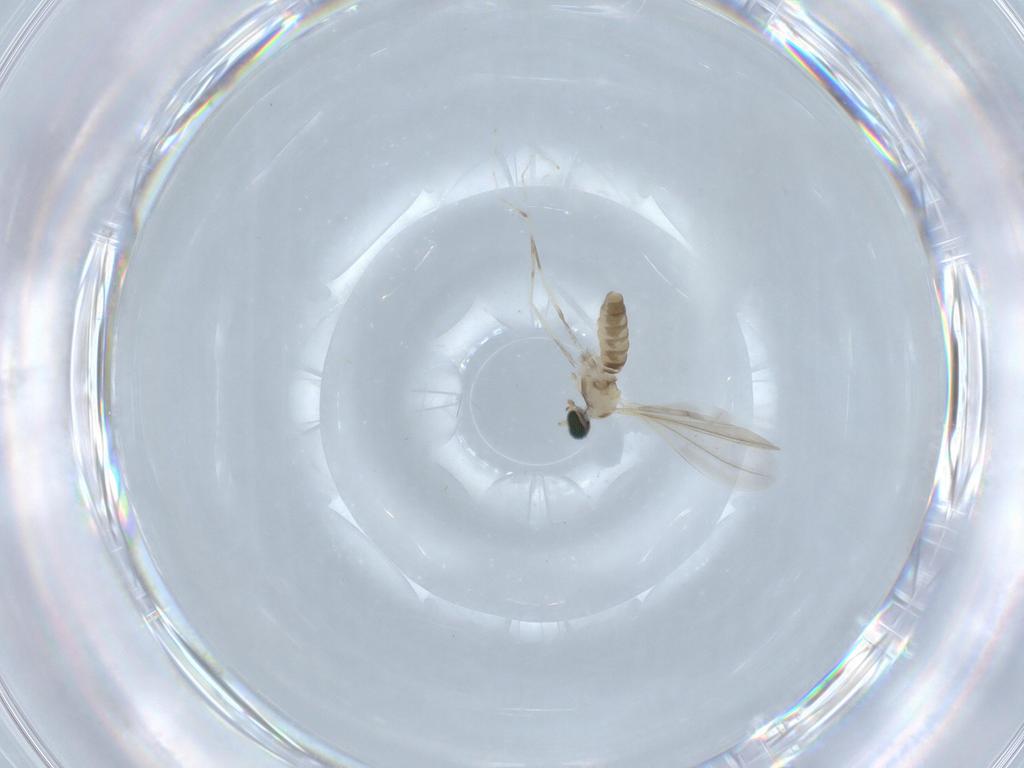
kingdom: Animalia
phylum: Arthropoda
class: Insecta
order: Diptera
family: Cecidomyiidae
